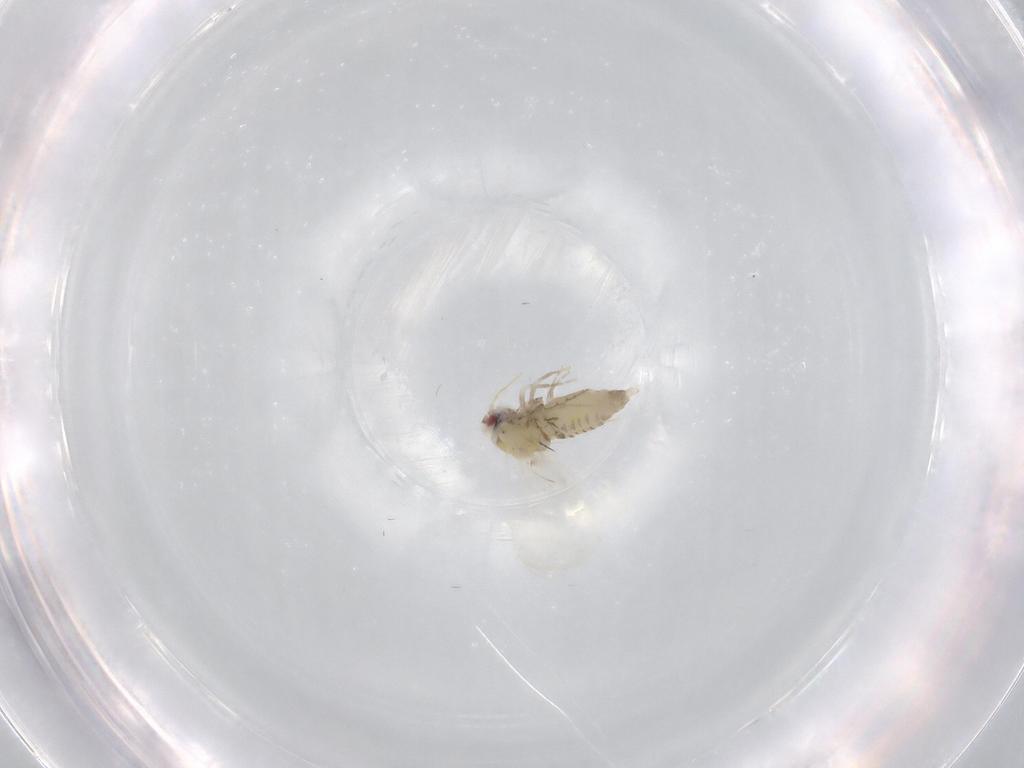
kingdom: Animalia
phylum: Arthropoda
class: Insecta
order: Hemiptera
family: Aleyrodidae
